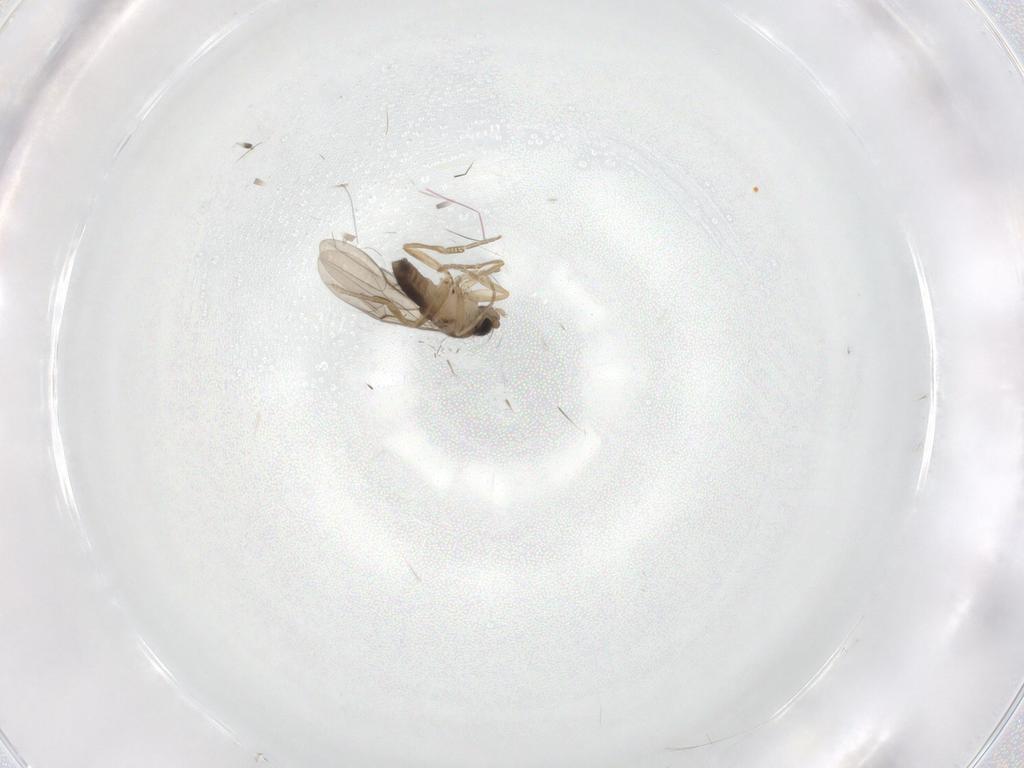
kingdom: Animalia
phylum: Arthropoda
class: Insecta
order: Diptera
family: Phoridae
